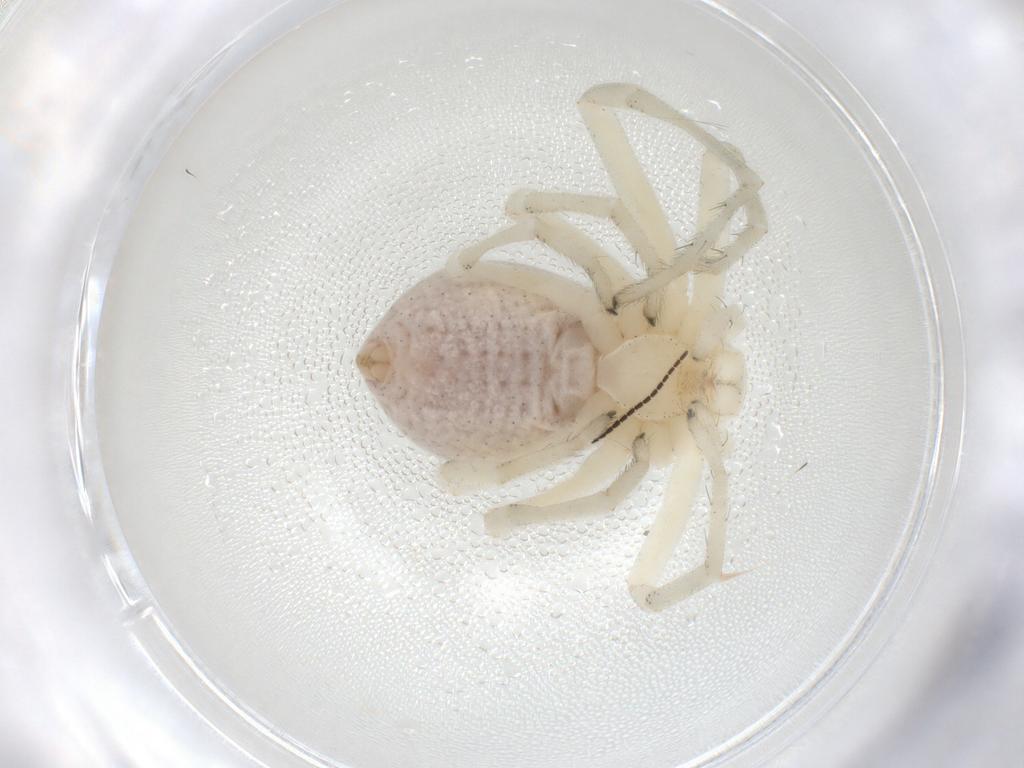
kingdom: Animalia
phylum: Arthropoda
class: Arachnida
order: Araneae
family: Philodromidae
